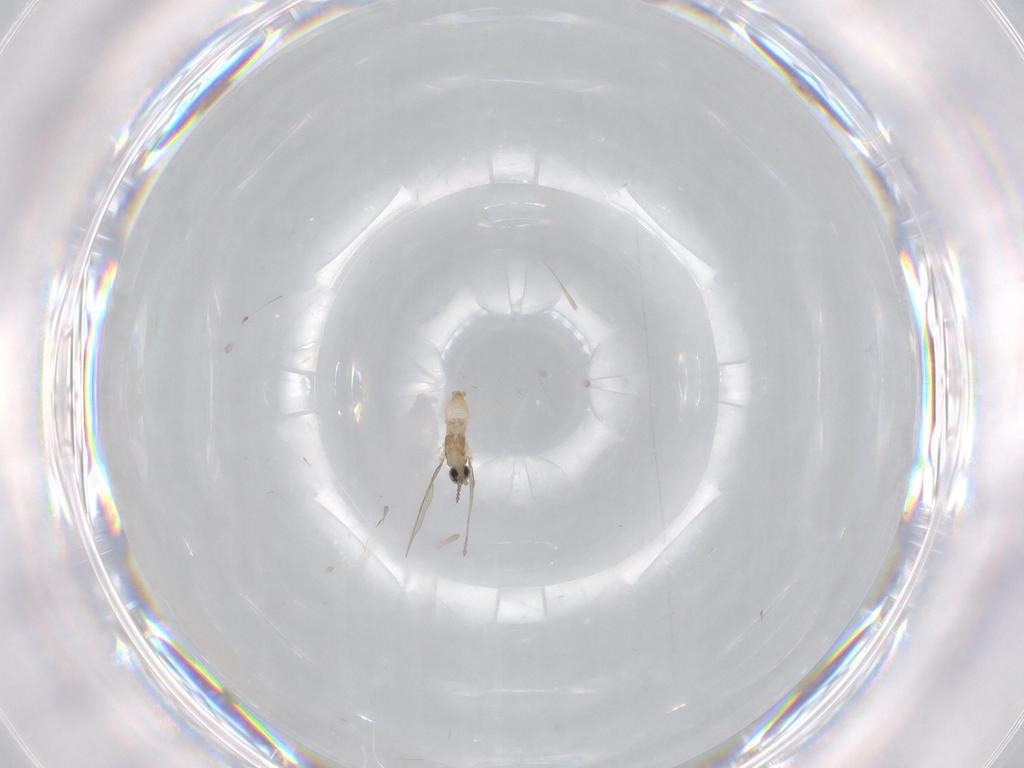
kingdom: Animalia
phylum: Arthropoda
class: Insecta
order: Diptera
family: Cecidomyiidae
